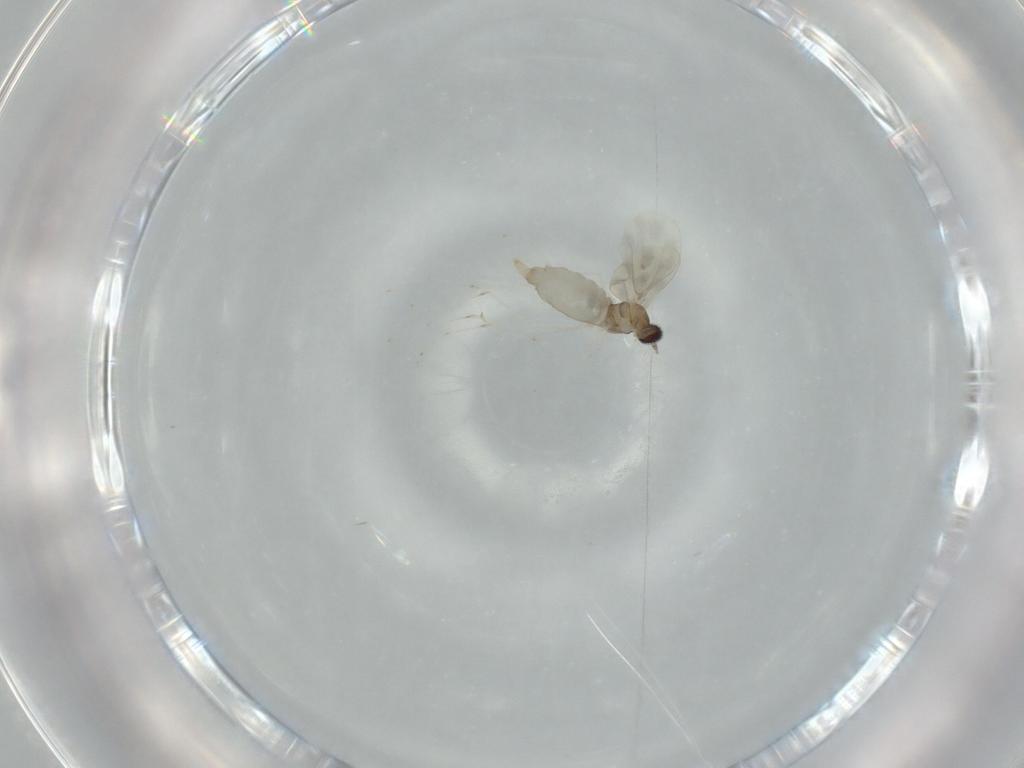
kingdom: Animalia
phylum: Arthropoda
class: Insecta
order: Diptera
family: Cecidomyiidae
